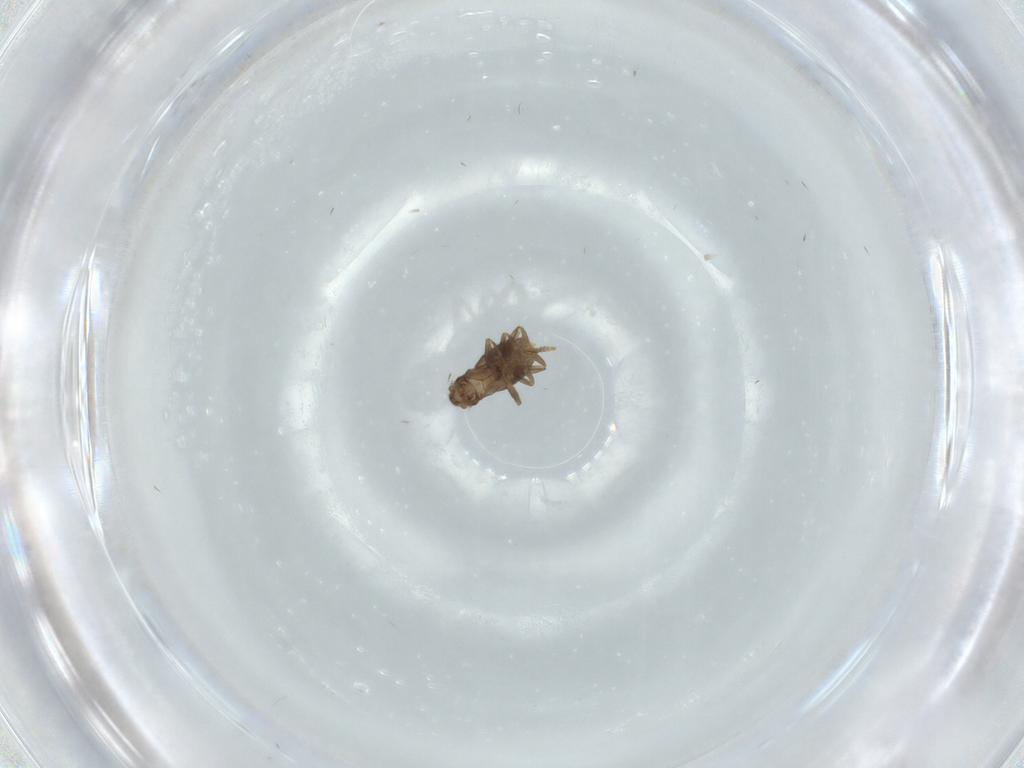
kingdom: Animalia
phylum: Arthropoda
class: Insecta
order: Diptera
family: Phoridae
